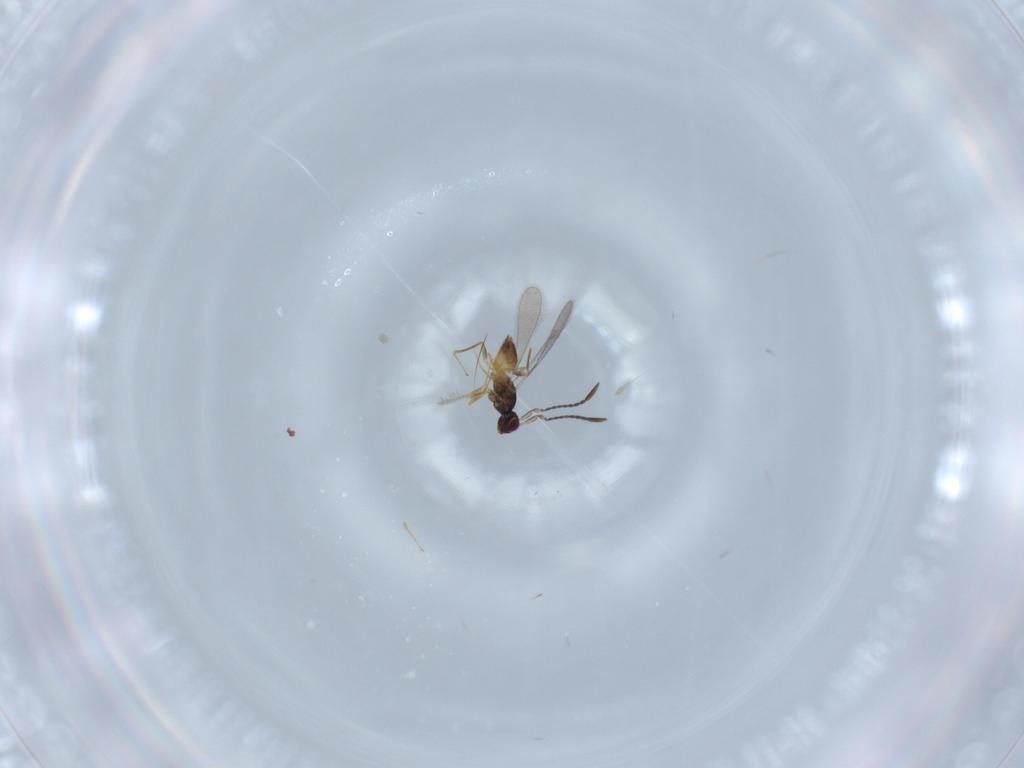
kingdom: Animalia
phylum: Arthropoda
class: Insecta
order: Hymenoptera
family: Mymaridae
